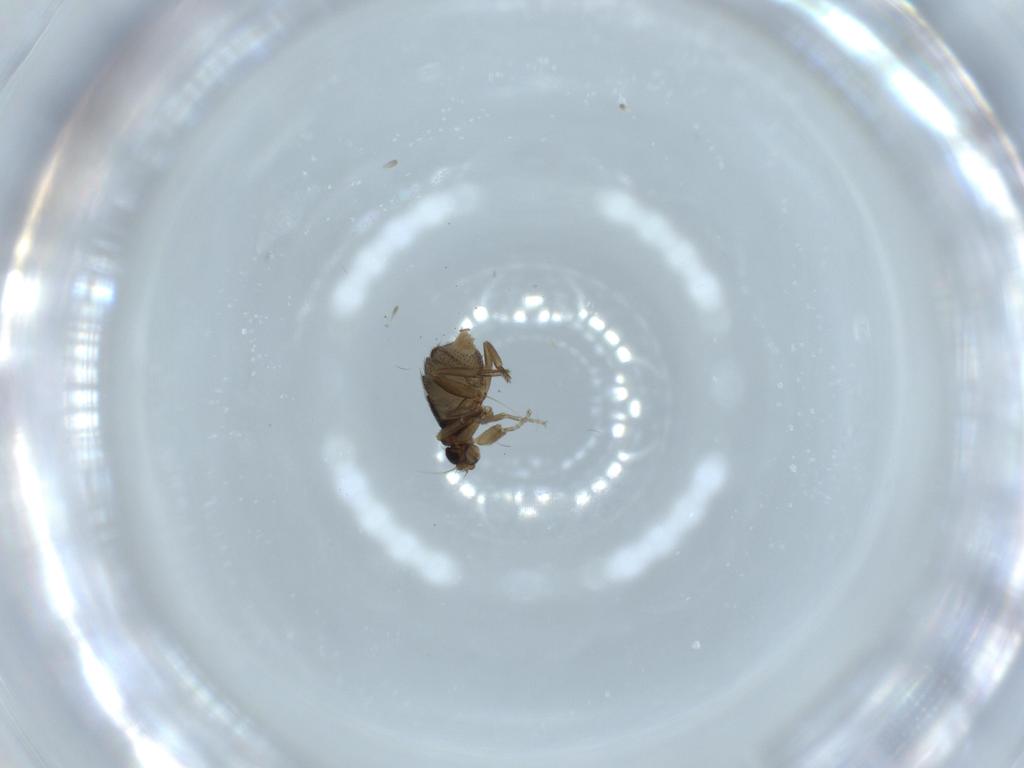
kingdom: Animalia
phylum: Arthropoda
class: Insecta
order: Diptera
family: Phoridae
